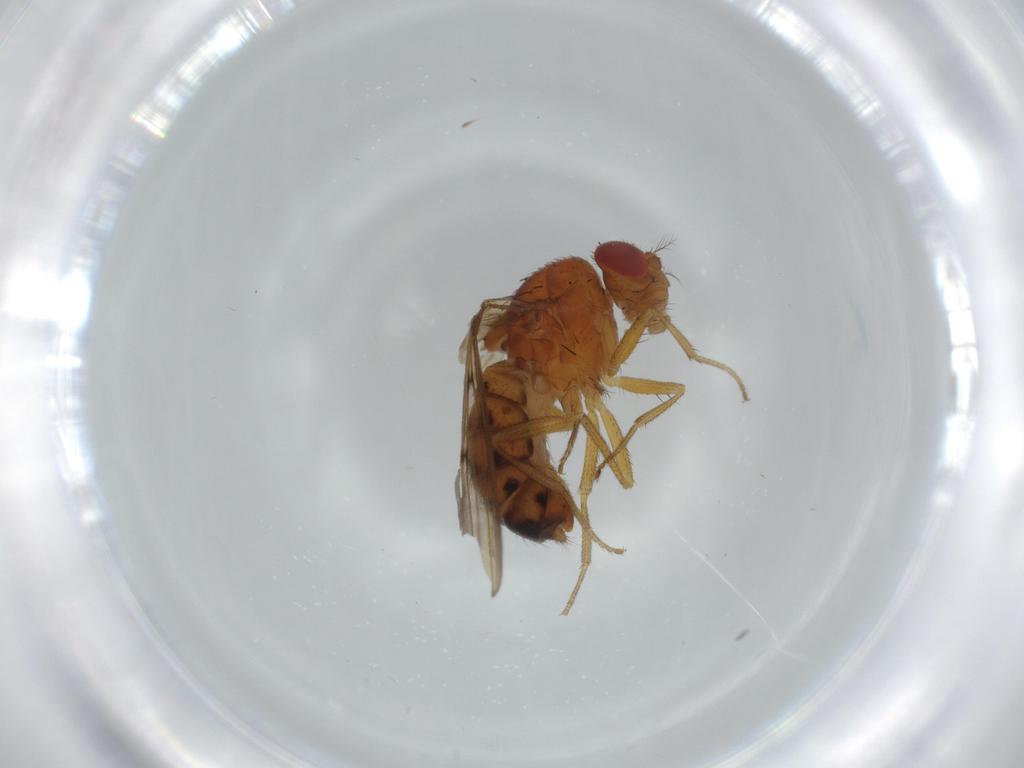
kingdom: Animalia
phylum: Arthropoda
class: Insecta
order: Diptera
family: Drosophilidae
